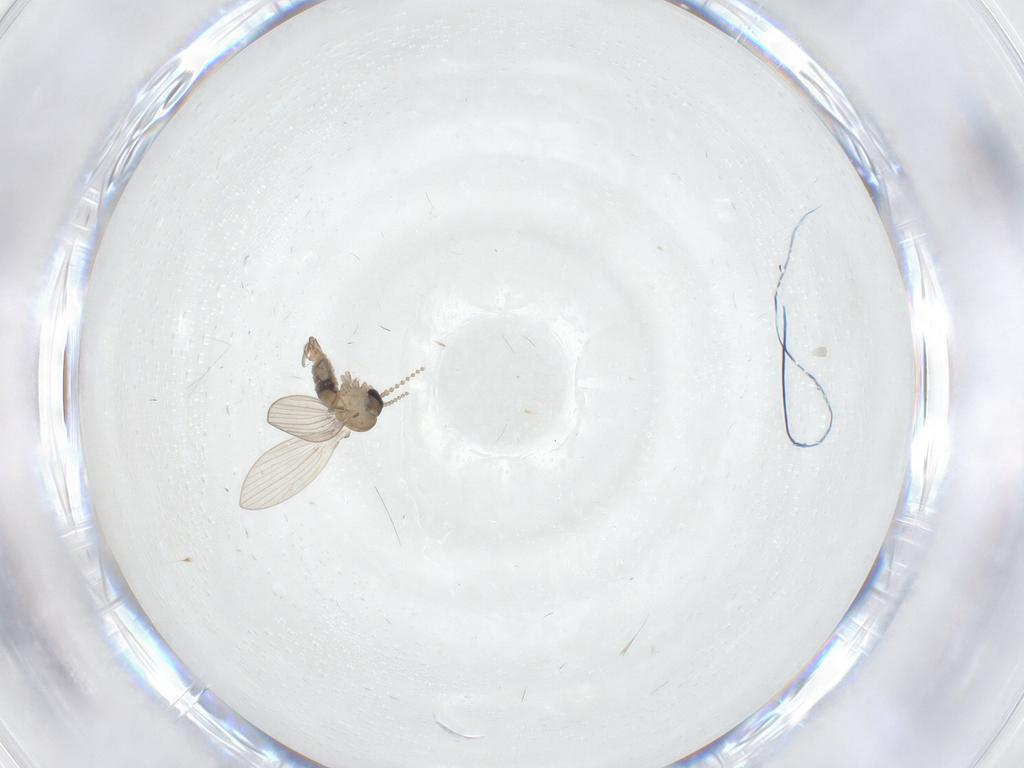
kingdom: Animalia
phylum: Arthropoda
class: Insecta
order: Diptera
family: Psychodidae
